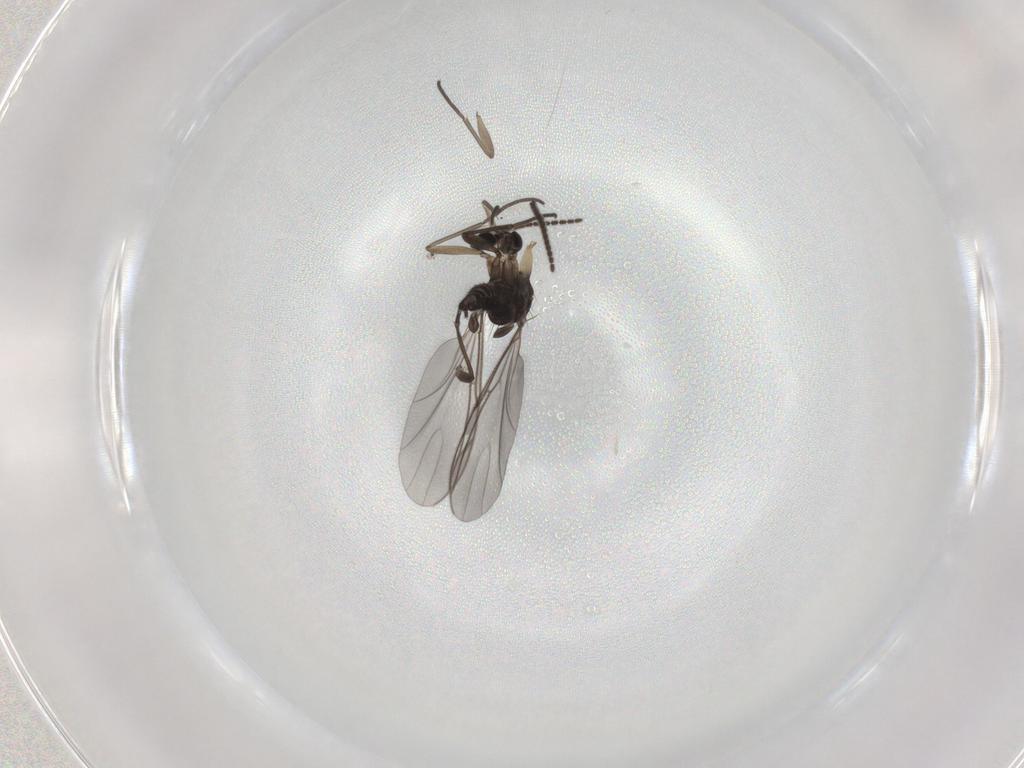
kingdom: Animalia
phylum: Arthropoda
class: Insecta
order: Diptera
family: Sciaridae
